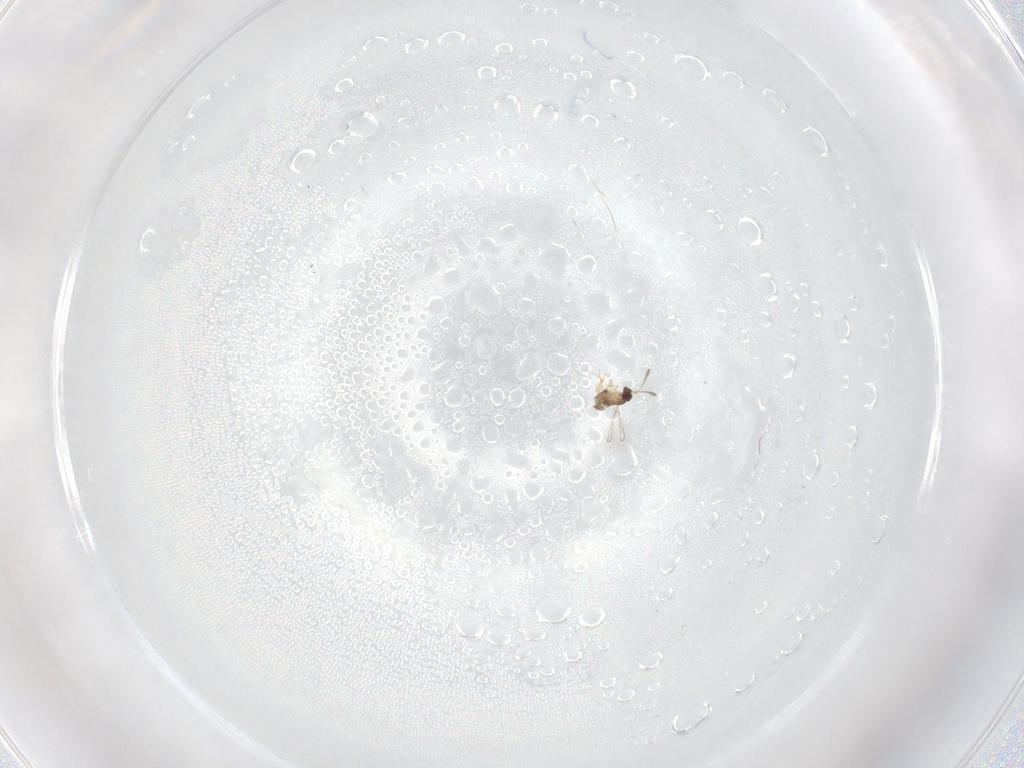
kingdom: Animalia
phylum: Arthropoda
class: Insecta
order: Hymenoptera
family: Mymaridae
